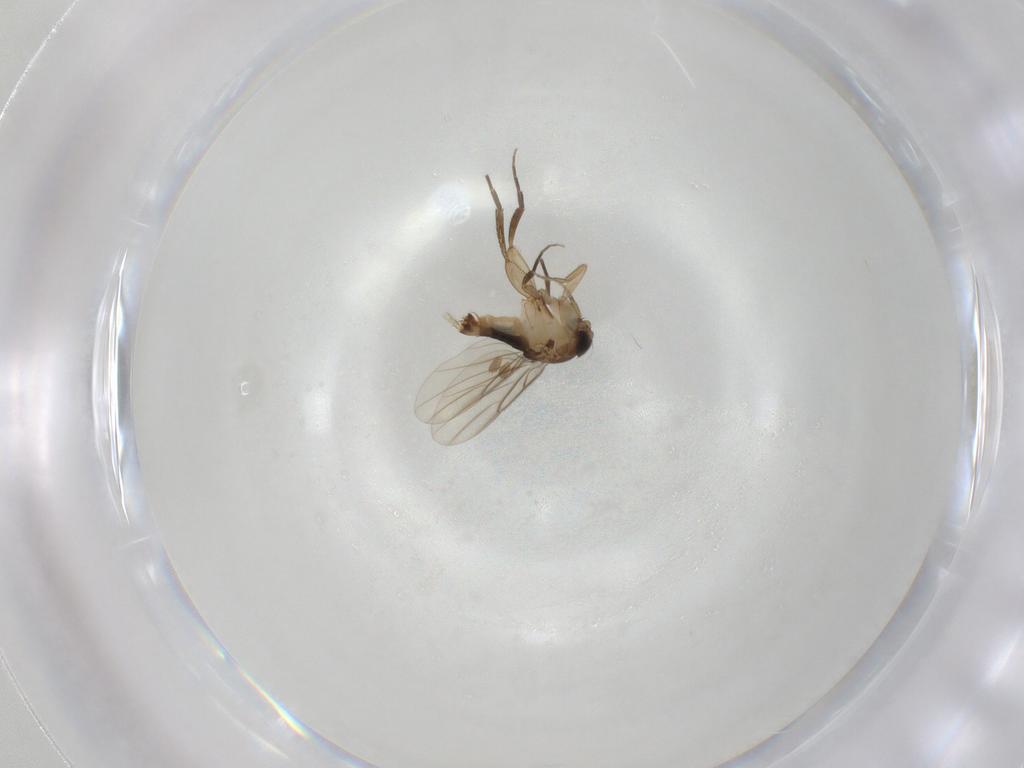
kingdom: Animalia
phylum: Arthropoda
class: Insecta
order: Diptera
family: Phoridae
